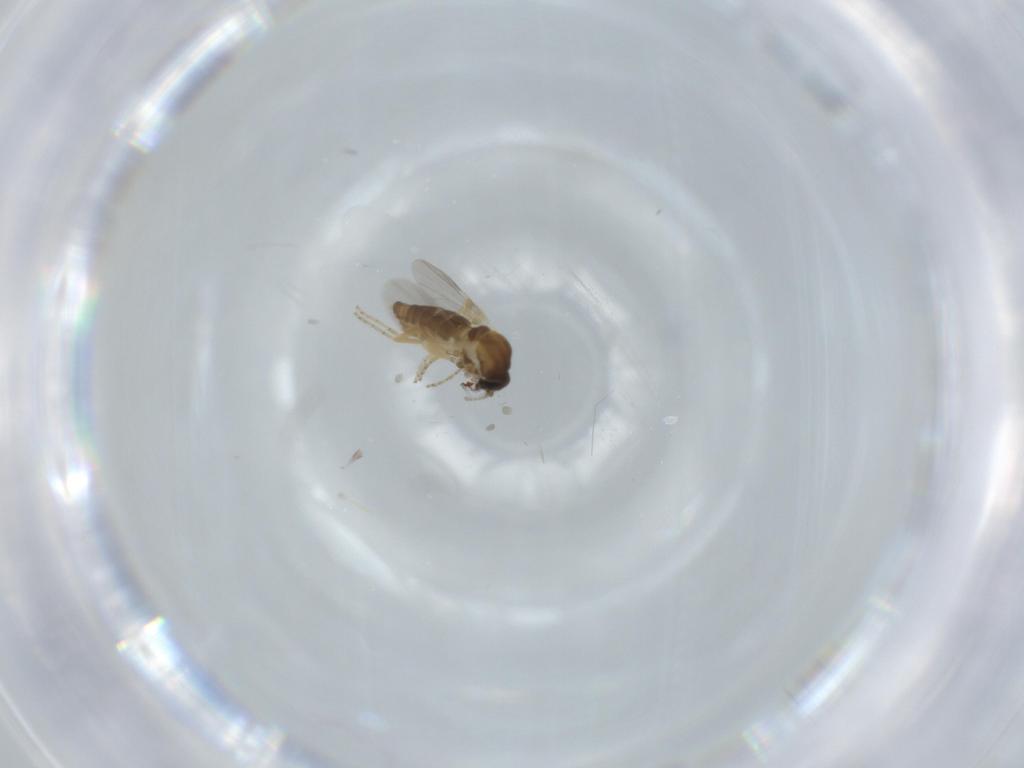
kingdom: Animalia
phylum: Arthropoda
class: Insecta
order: Diptera
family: Ceratopogonidae
